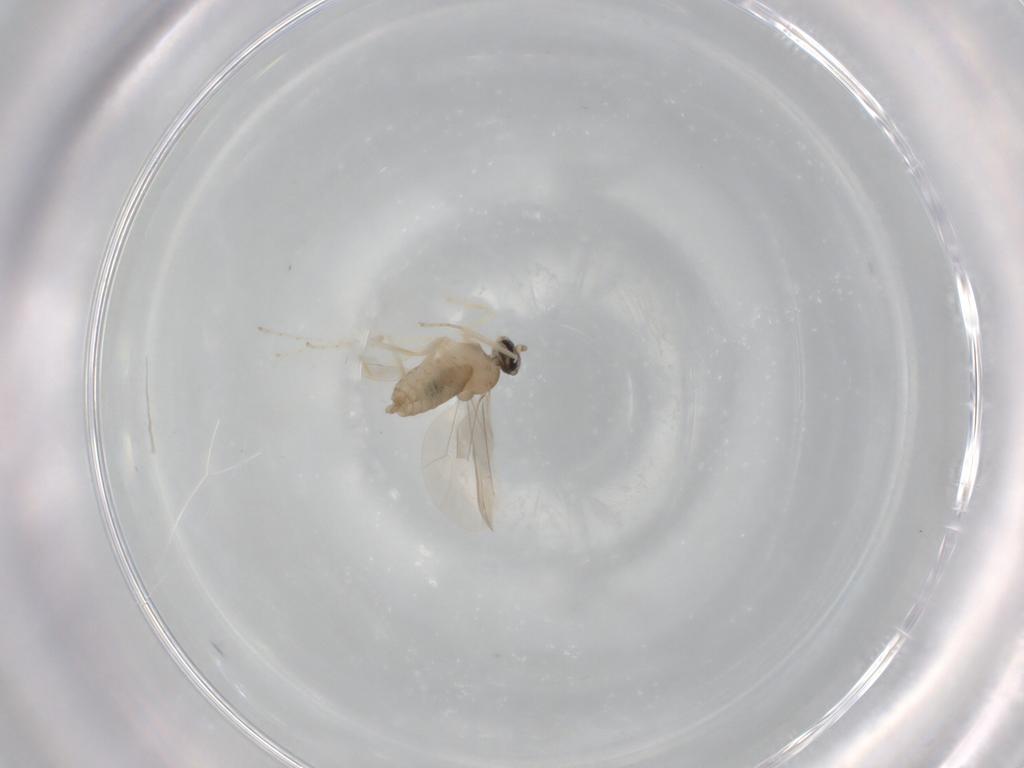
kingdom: Animalia
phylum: Arthropoda
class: Insecta
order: Diptera
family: Cecidomyiidae
